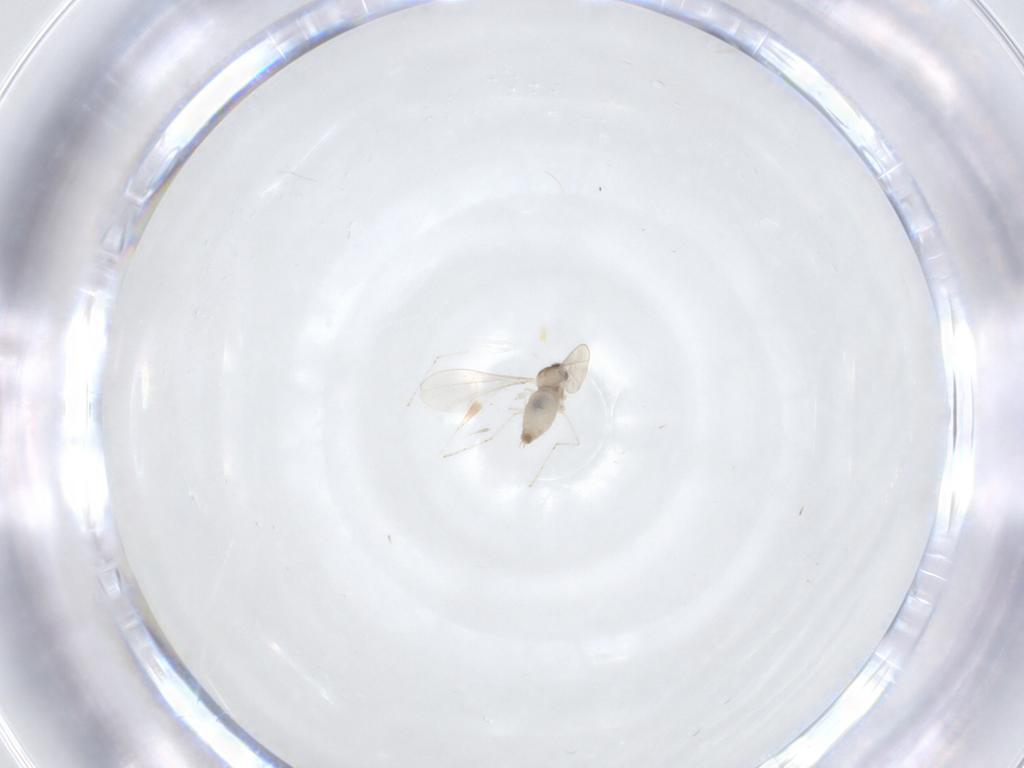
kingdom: Animalia
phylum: Arthropoda
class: Insecta
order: Diptera
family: Cecidomyiidae
